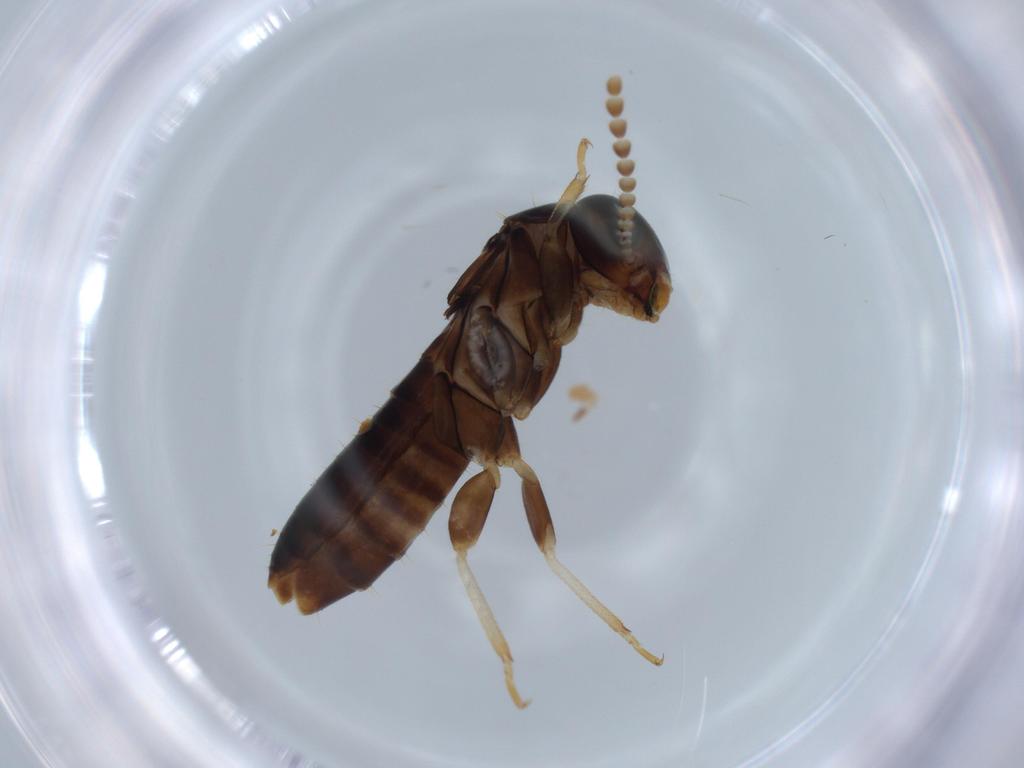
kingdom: Animalia
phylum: Arthropoda
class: Insecta
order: Blattodea
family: Kalotermitidae
